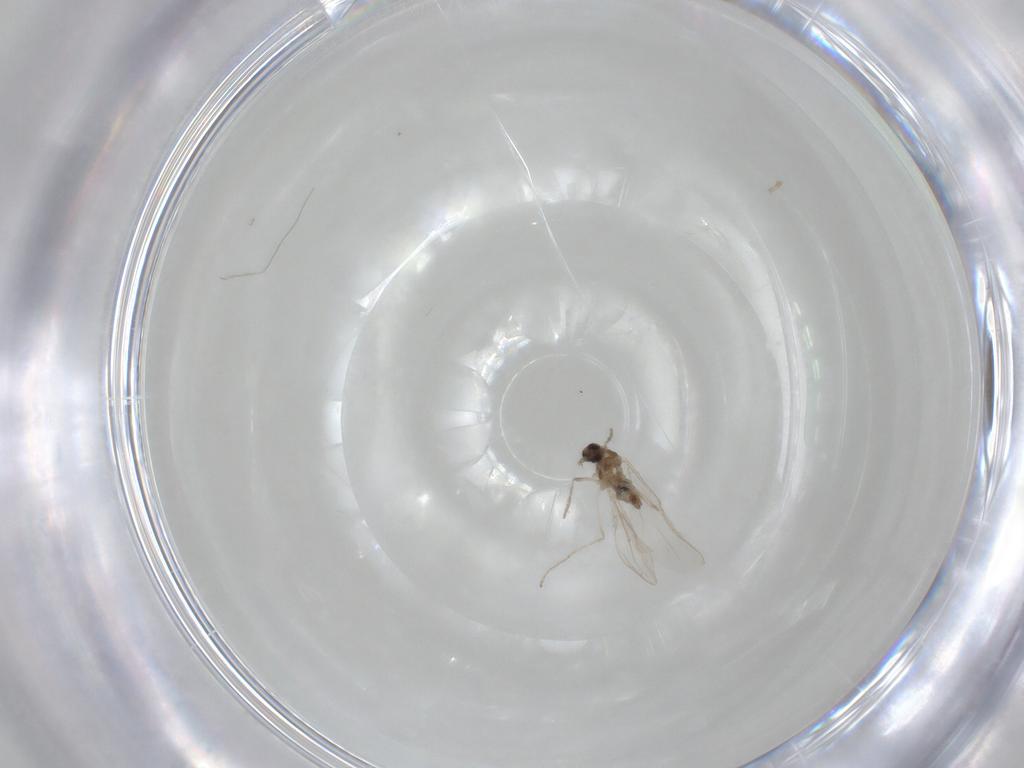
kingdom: Animalia
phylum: Arthropoda
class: Insecta
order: Diptera
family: Cecidomyiidae
